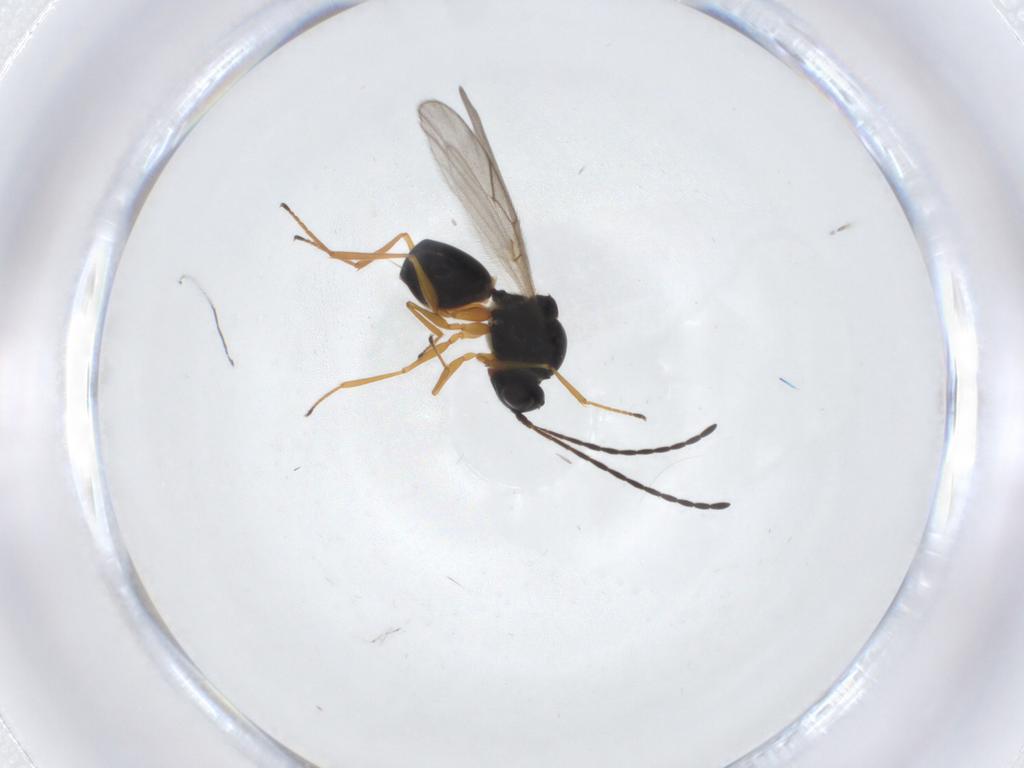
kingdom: Animalia
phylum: Arthropoda
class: Insecta
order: Hymenoptera
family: Figitidae
